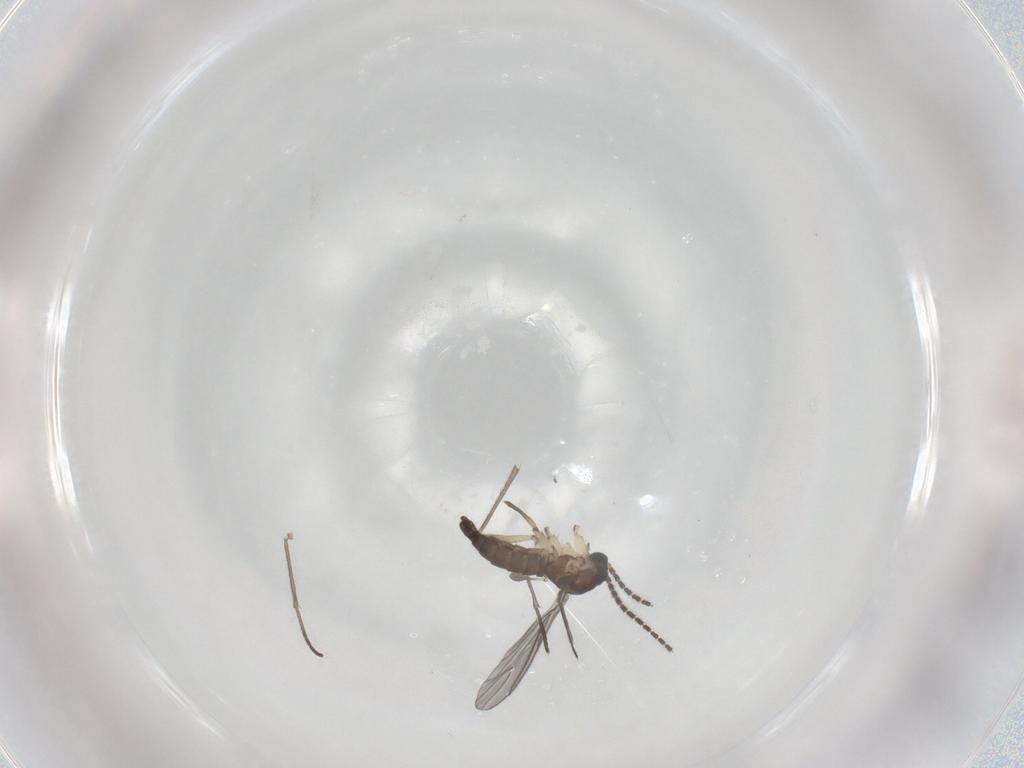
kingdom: Animalia
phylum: Arthropoda
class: Insecta
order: Diptera
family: Sciaridae
